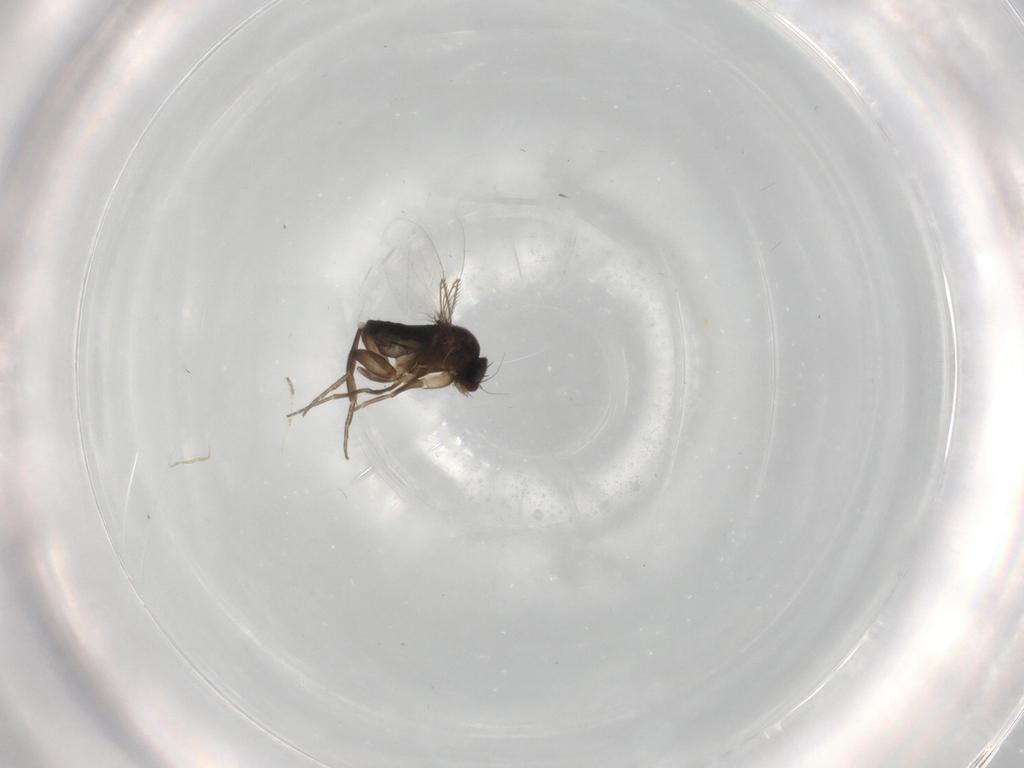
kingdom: Animalia
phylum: Arthropoda
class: Insecta
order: Diptera
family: Phoridae
